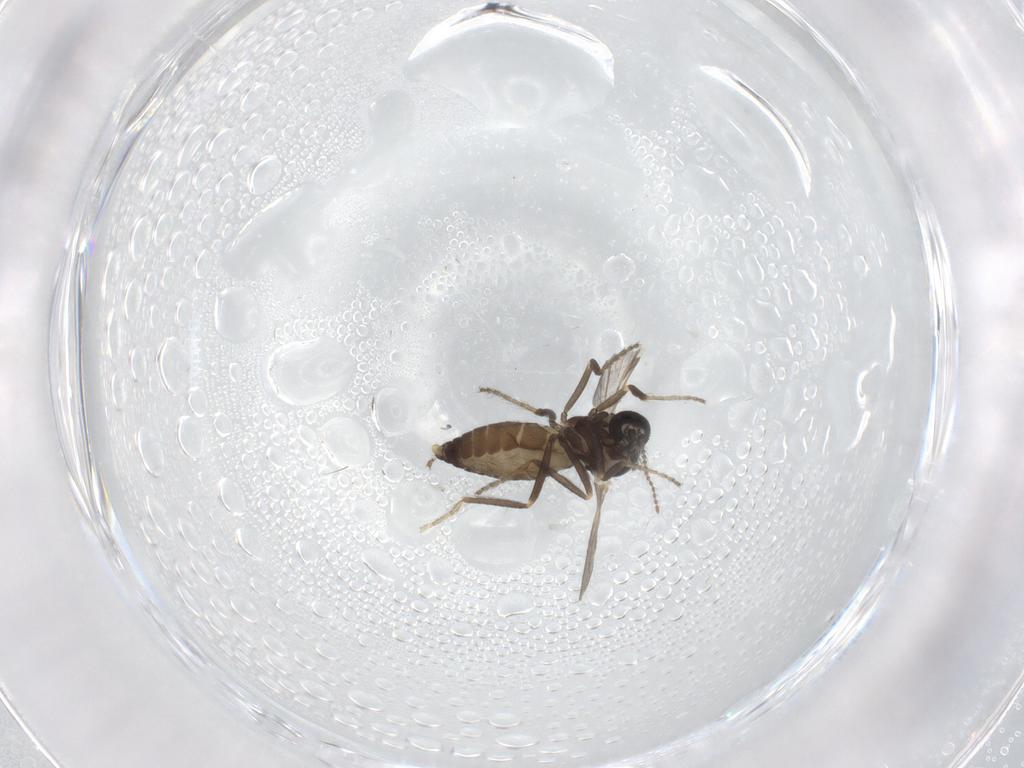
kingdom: Animalia
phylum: Arthropoda
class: Insecta
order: Diptera
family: Ceratopogonidae
